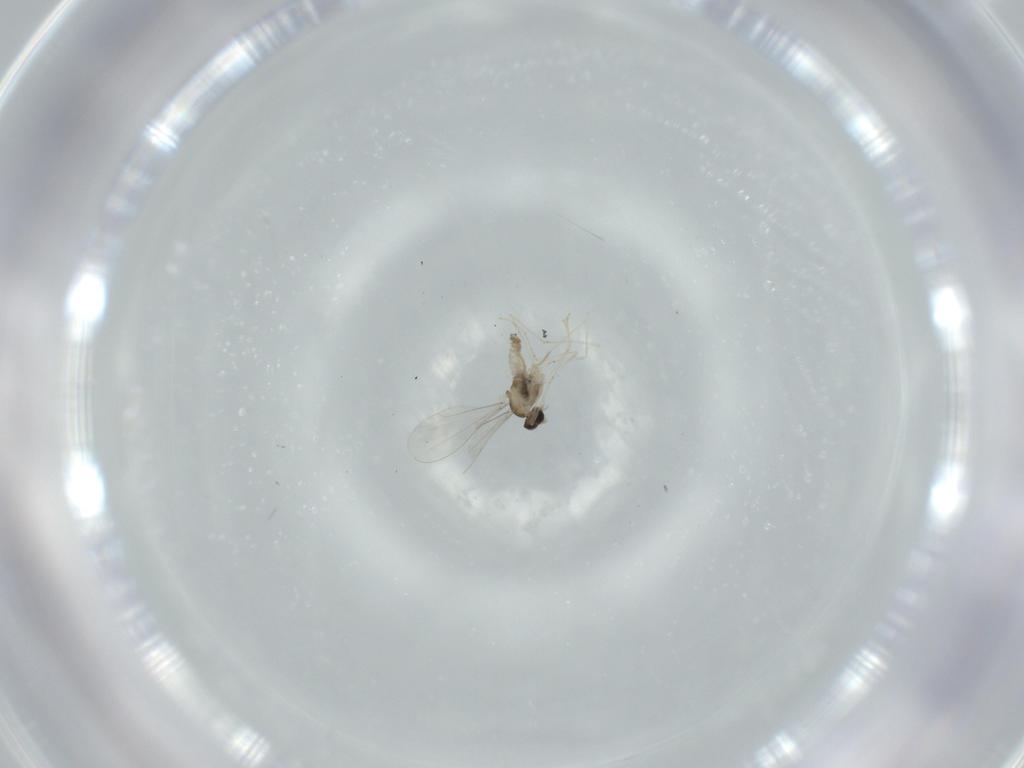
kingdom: Animalia
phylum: Arthropoda
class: Insecta
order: Diptera
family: Cecidomyiidae
